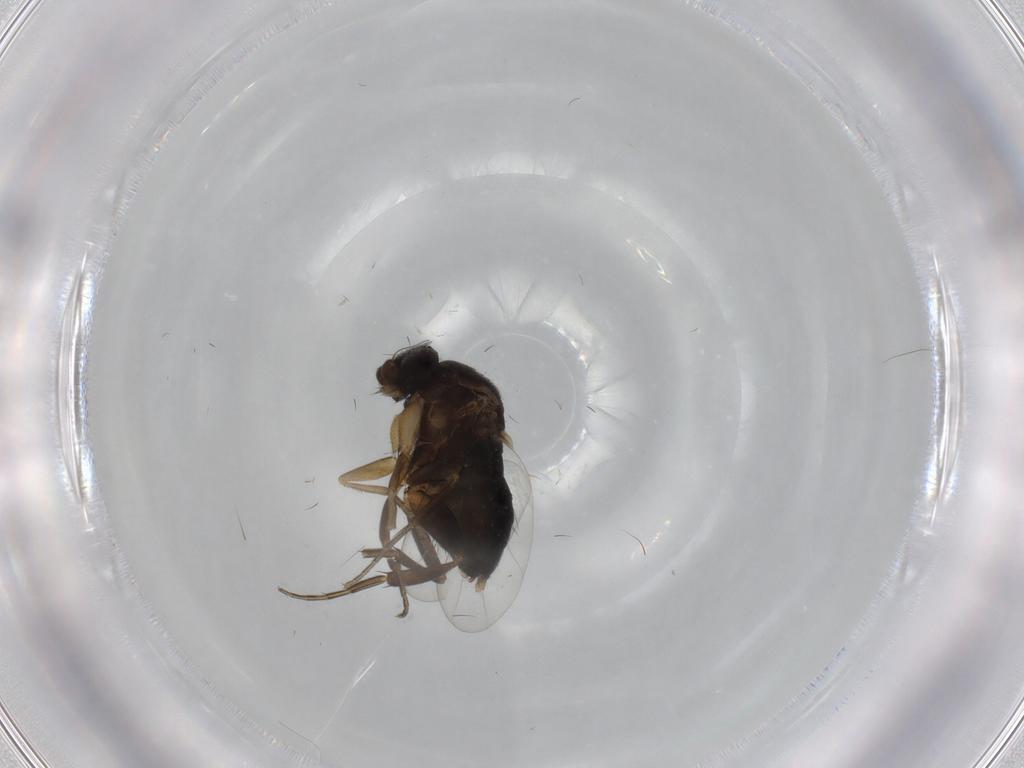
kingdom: Animalia
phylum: Arthropoda
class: Insecta
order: Diptera
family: Phoridae
